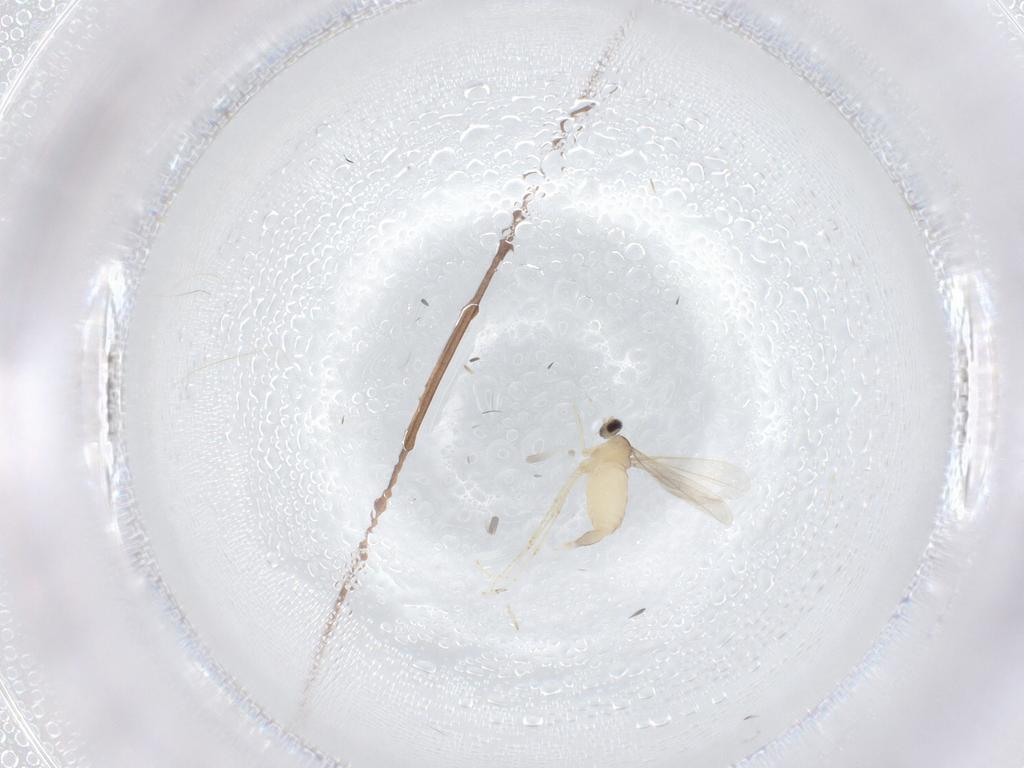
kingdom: Animalia
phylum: Arthropoda
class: Insecta
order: Diptera
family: Cecidomyiidae
